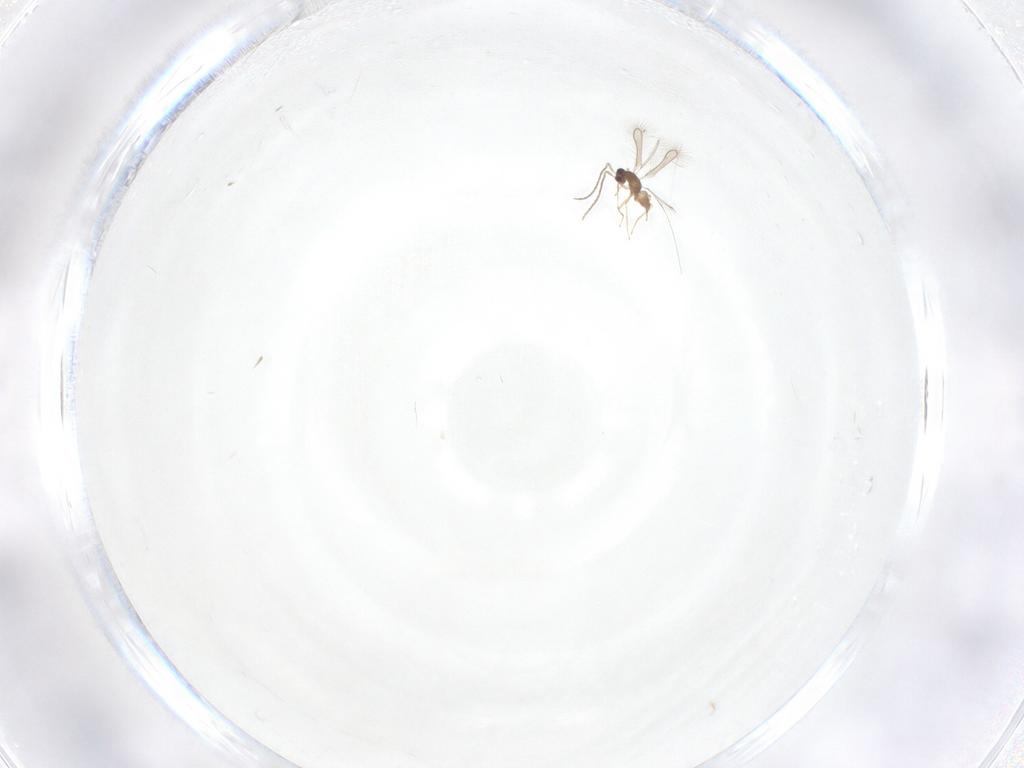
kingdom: Animalia
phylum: Arthropoda
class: Insecta
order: Hymenoptera
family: Mymaridae
